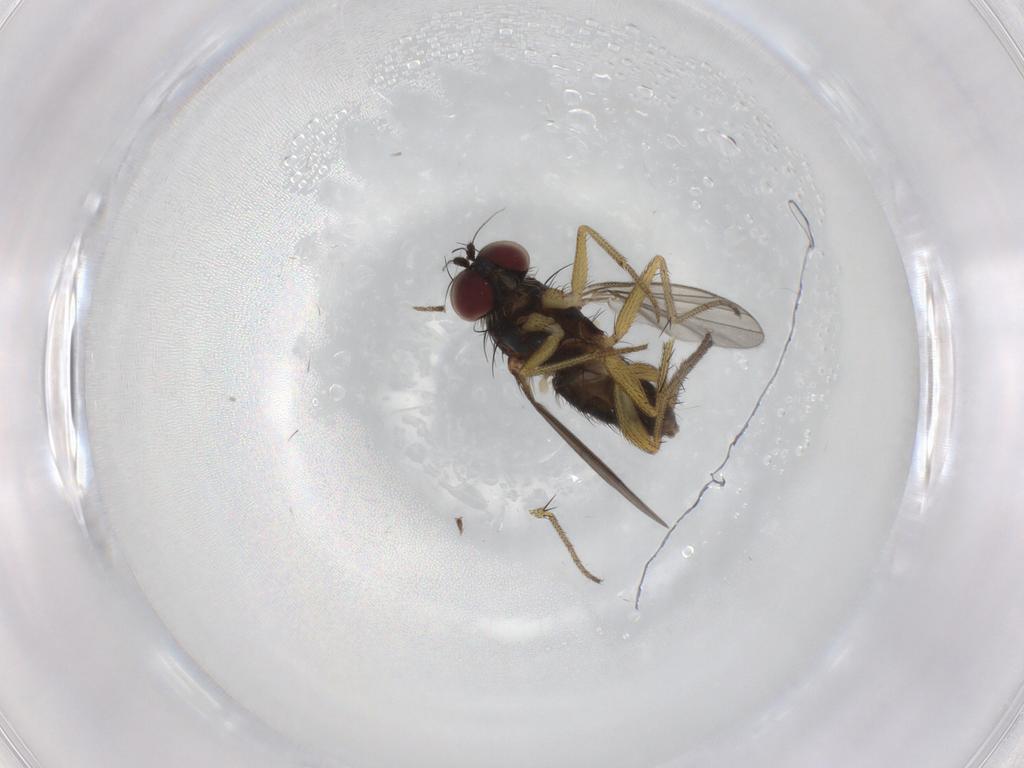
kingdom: Animalia
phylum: Arthropoda
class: Insecta
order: Diptera
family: Dolichopodidae
